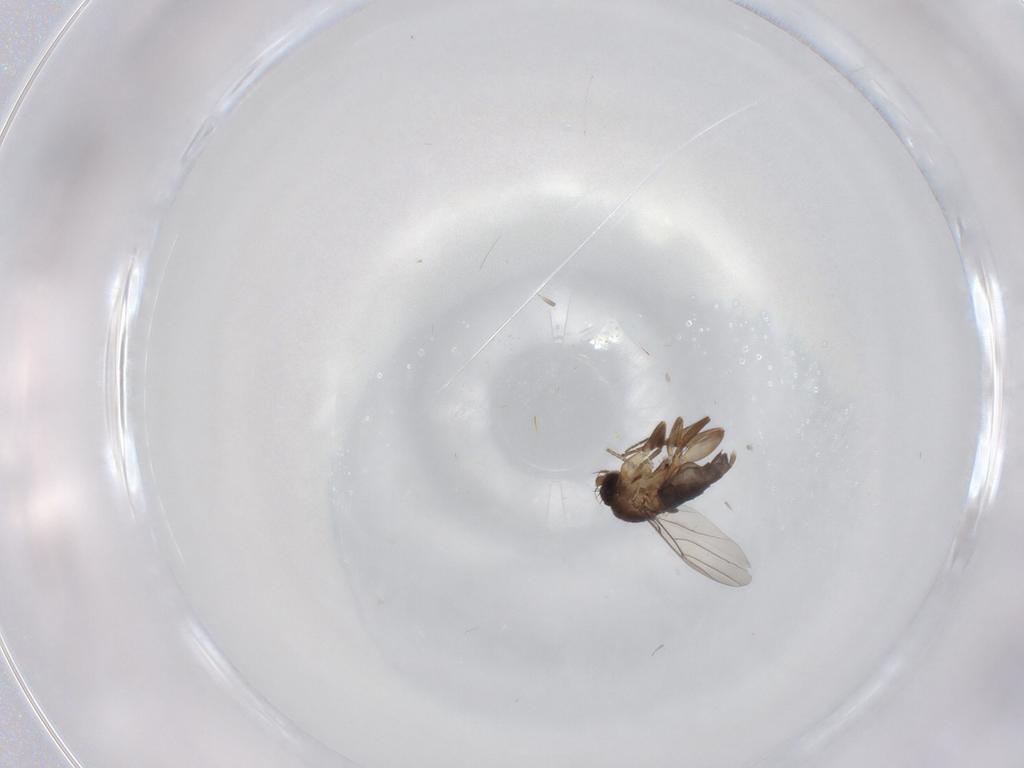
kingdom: Animalia
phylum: Arthropoda
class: Insecta
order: Diptera
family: Phoridae
